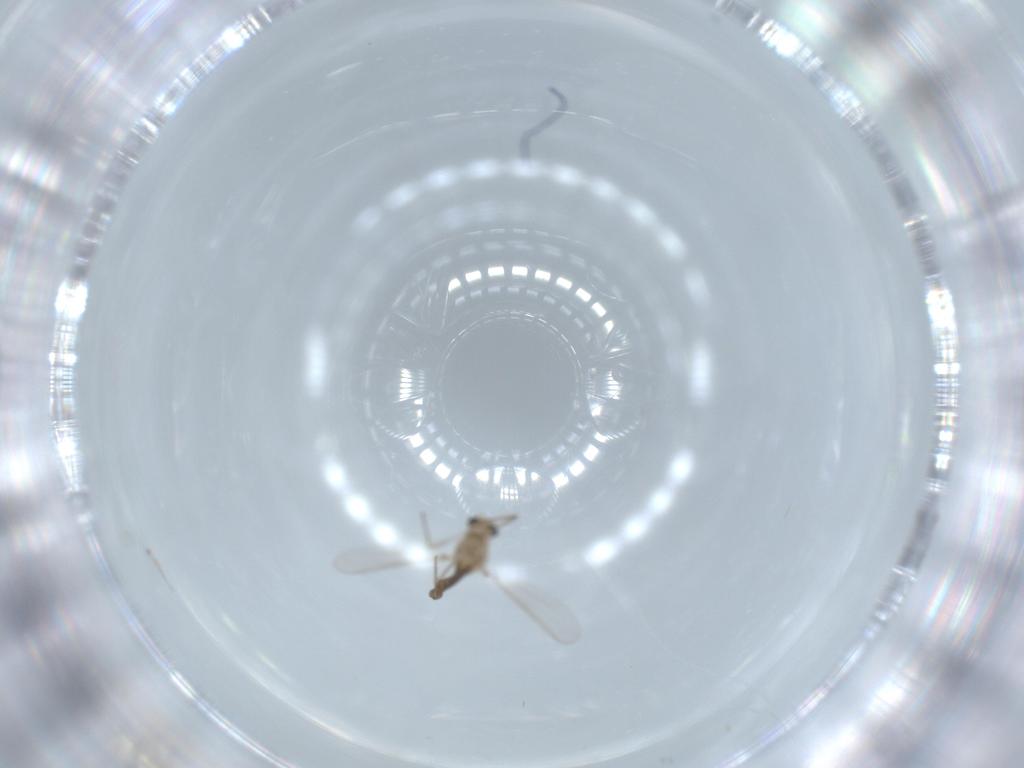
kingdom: Animalia
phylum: Arthropoda
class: Insecta
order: Diptera
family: Chironomidae
